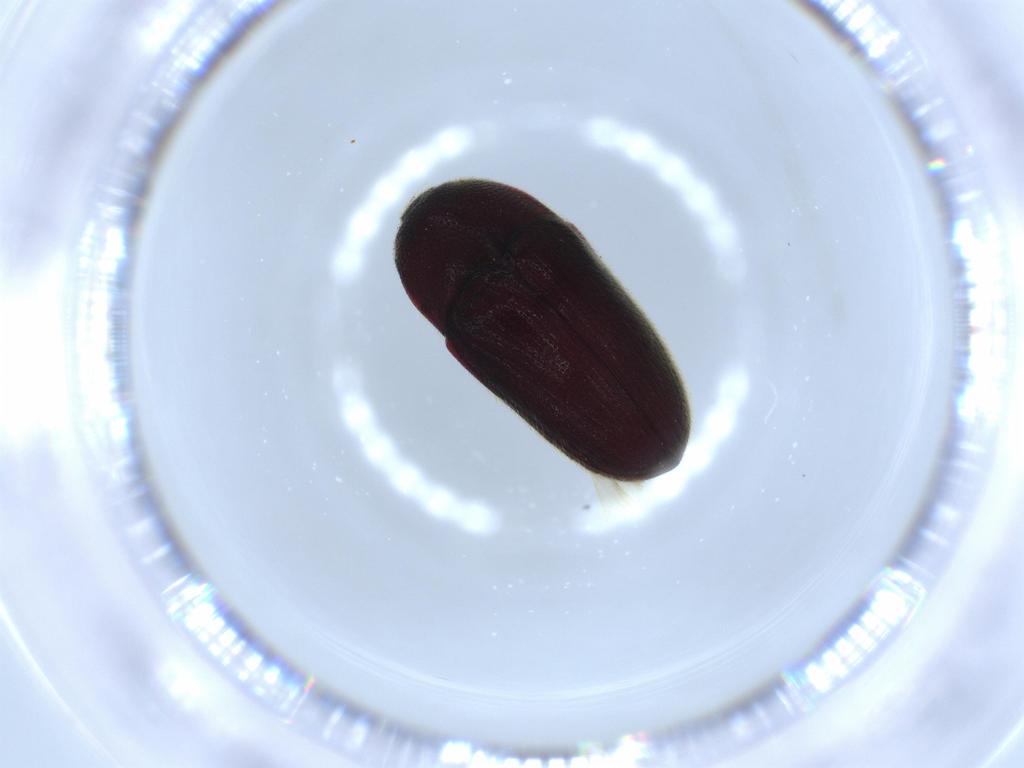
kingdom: Animalia
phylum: Arthropoda
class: Insecta
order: Coleoptera
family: Throscidae
